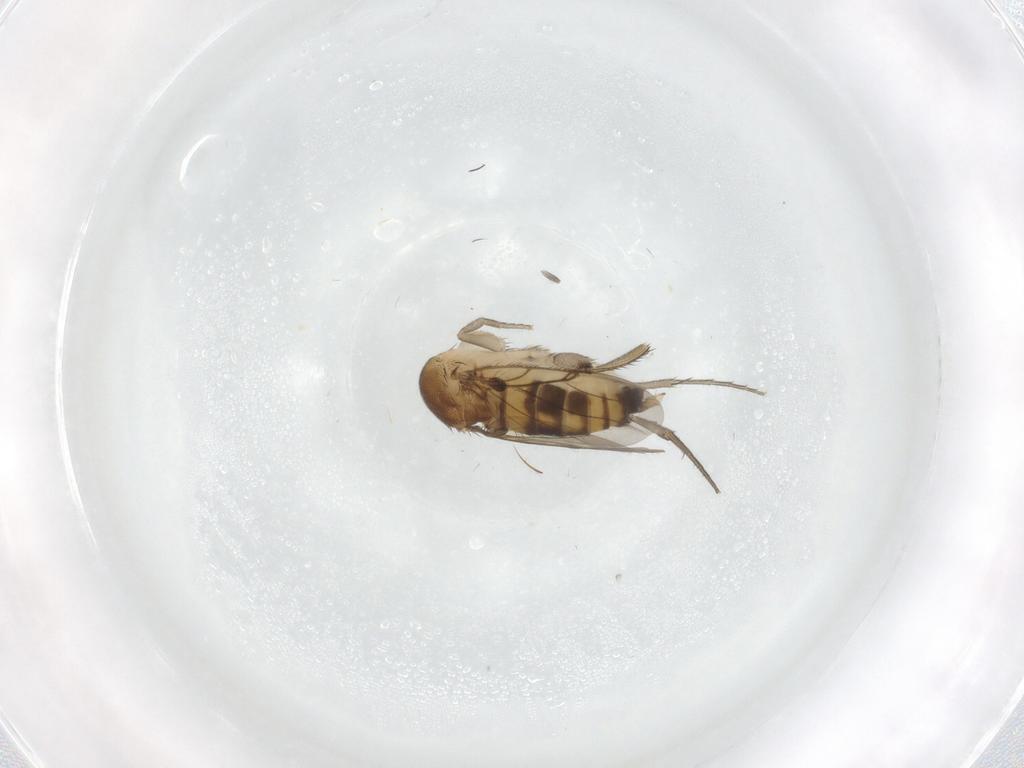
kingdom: Animalia
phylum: Arthropoda
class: Insecta
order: Diptera
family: Phoridae
